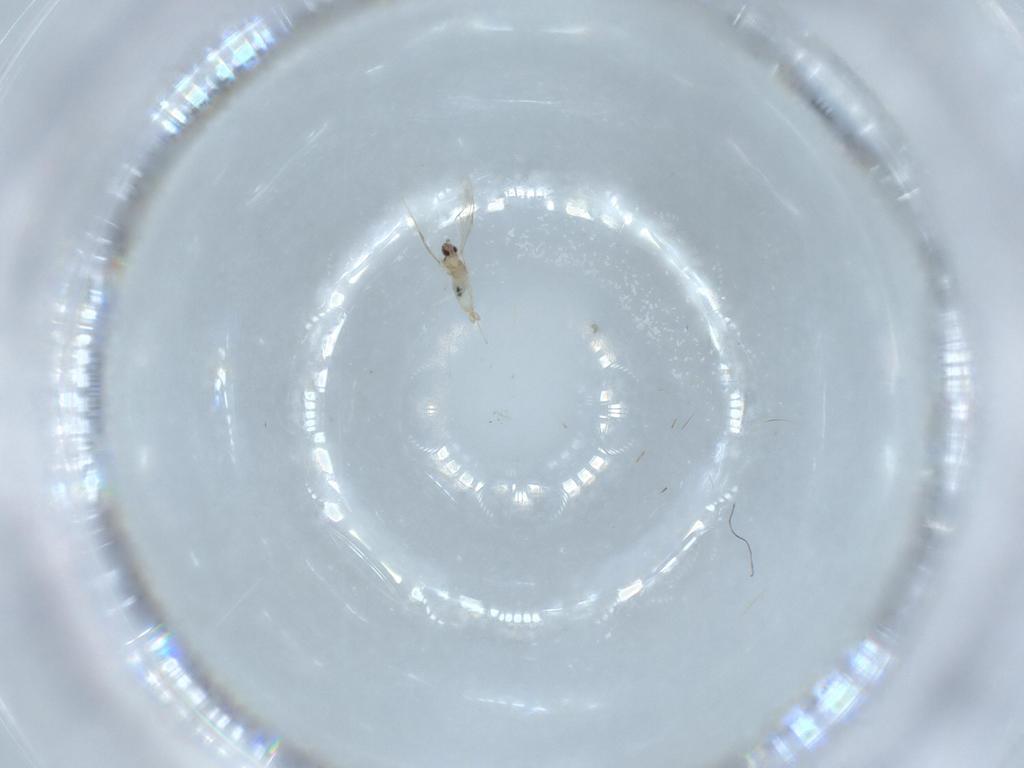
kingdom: Animalia
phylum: Arthropoda
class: Insecta
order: Diptera
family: Cecidomyiidae
